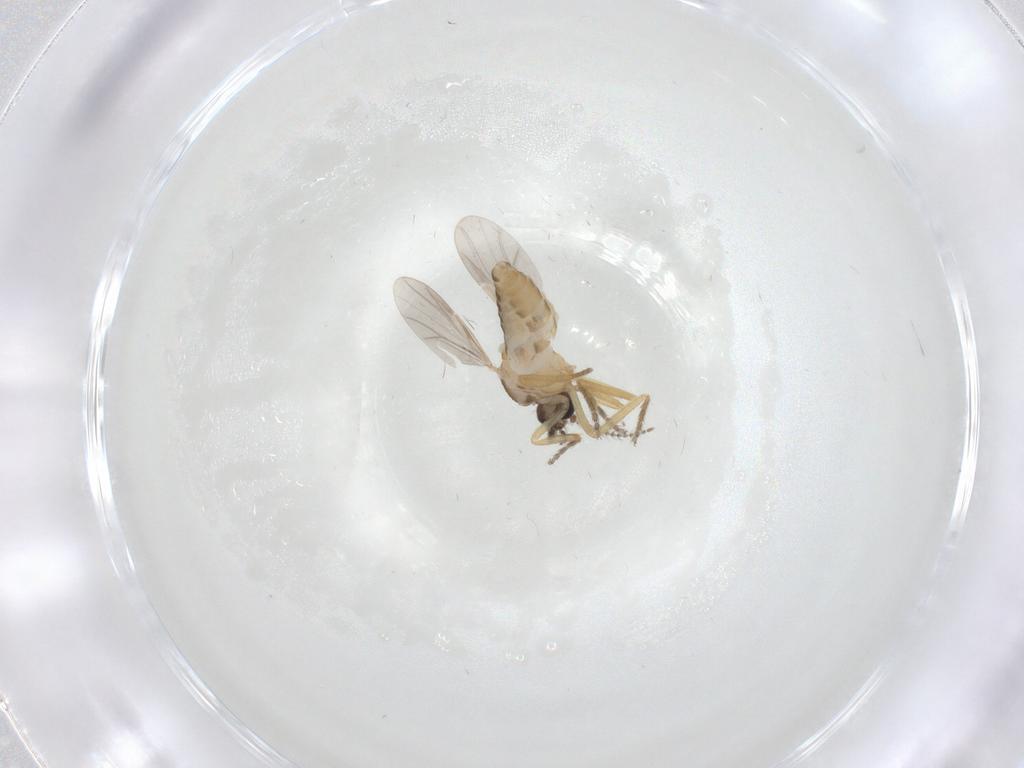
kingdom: Animalia
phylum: Arthropoda
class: Insecta
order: Diptera
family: Ceratopogonidae
